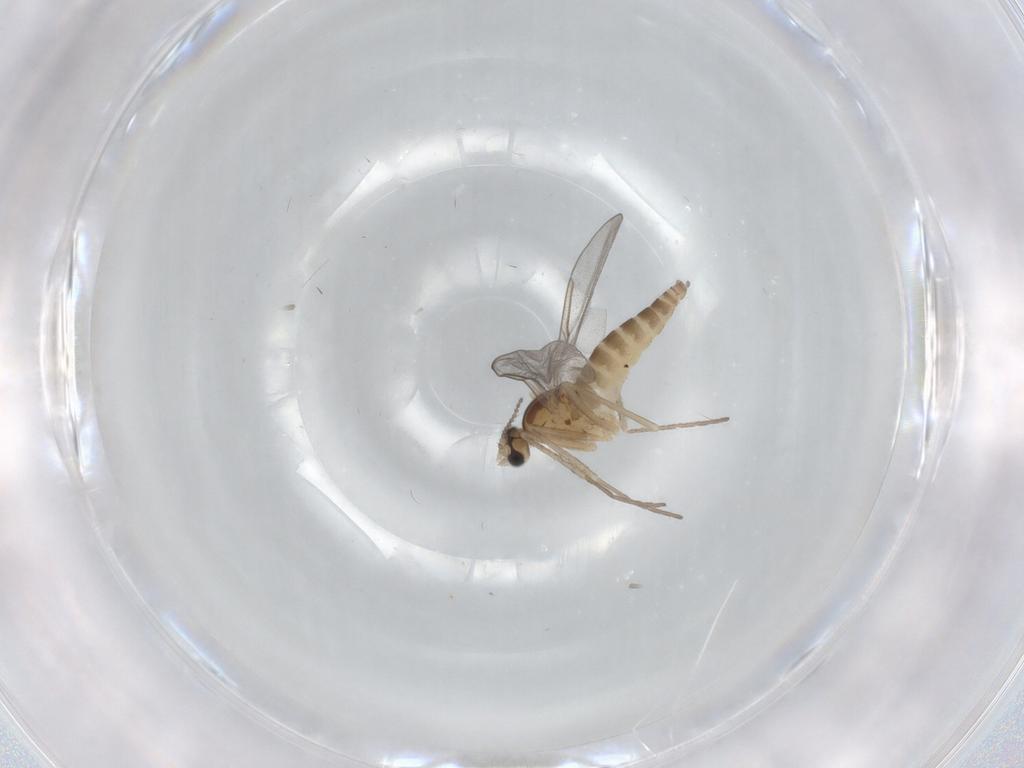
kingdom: Animalia
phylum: Arthropoda
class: Insecta
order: Diptera
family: Cecidomyiidae
